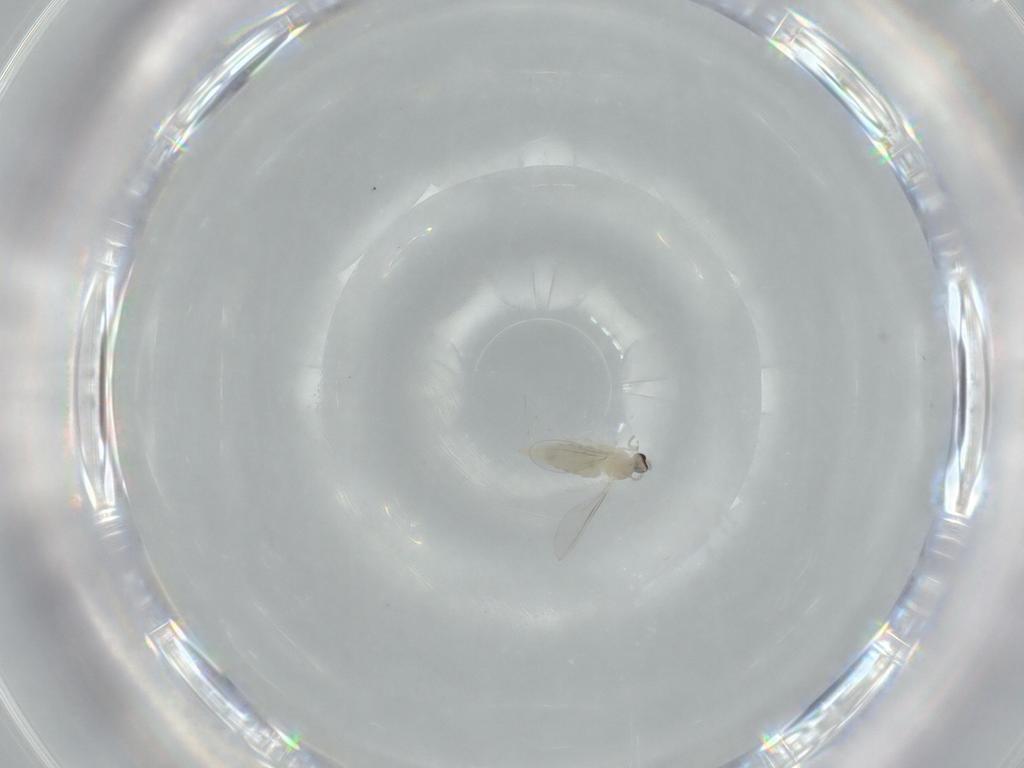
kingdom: Animalia
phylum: Arthropoda
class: Insecta
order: Diptera
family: Cecidomyiidae
